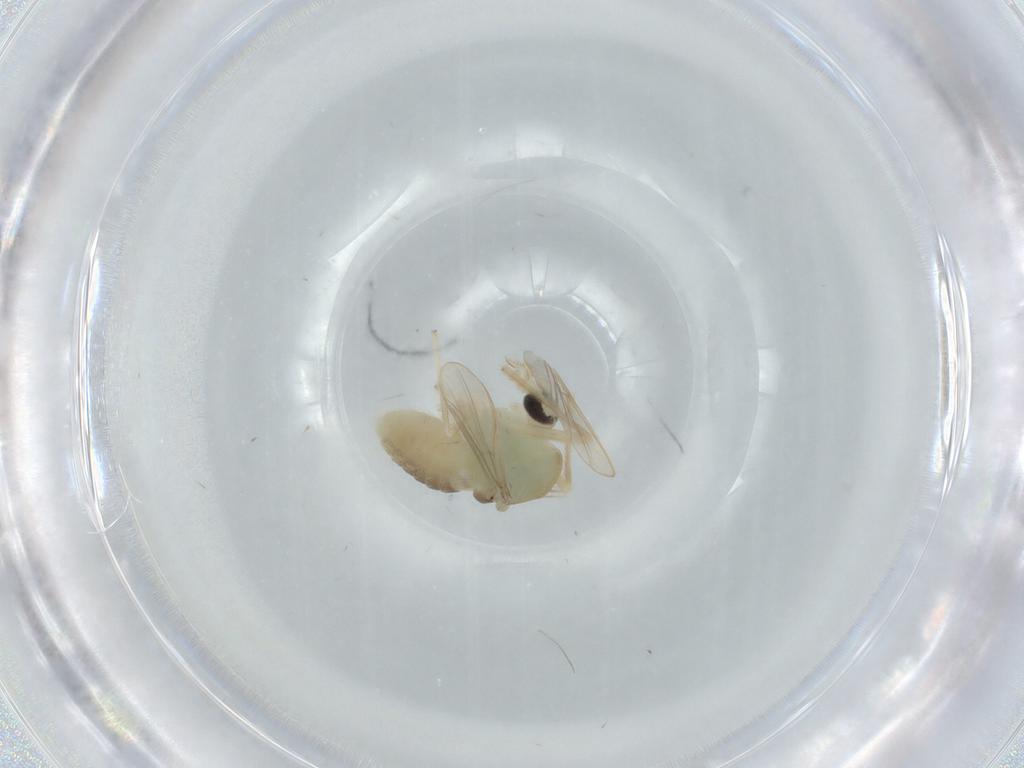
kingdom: Animalia
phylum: Arthropoda
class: Insecta
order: Diptera
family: Chironomidae
